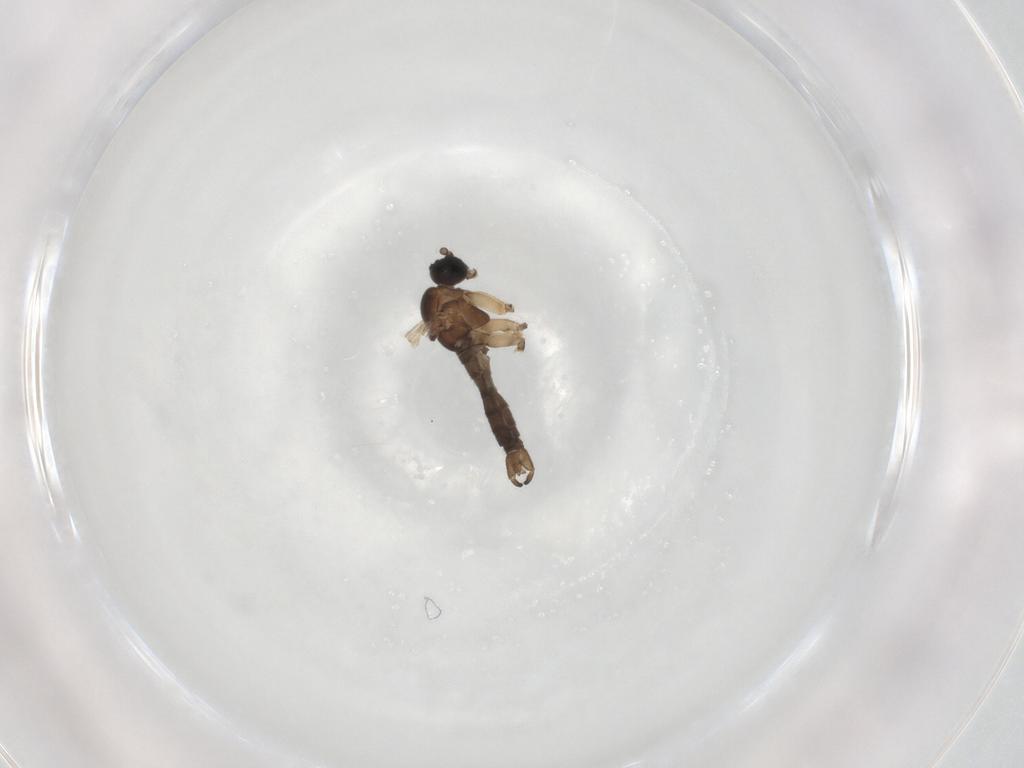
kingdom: Animalia
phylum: Arthropoda
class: Insecta
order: Diptera
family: Sciaridae
